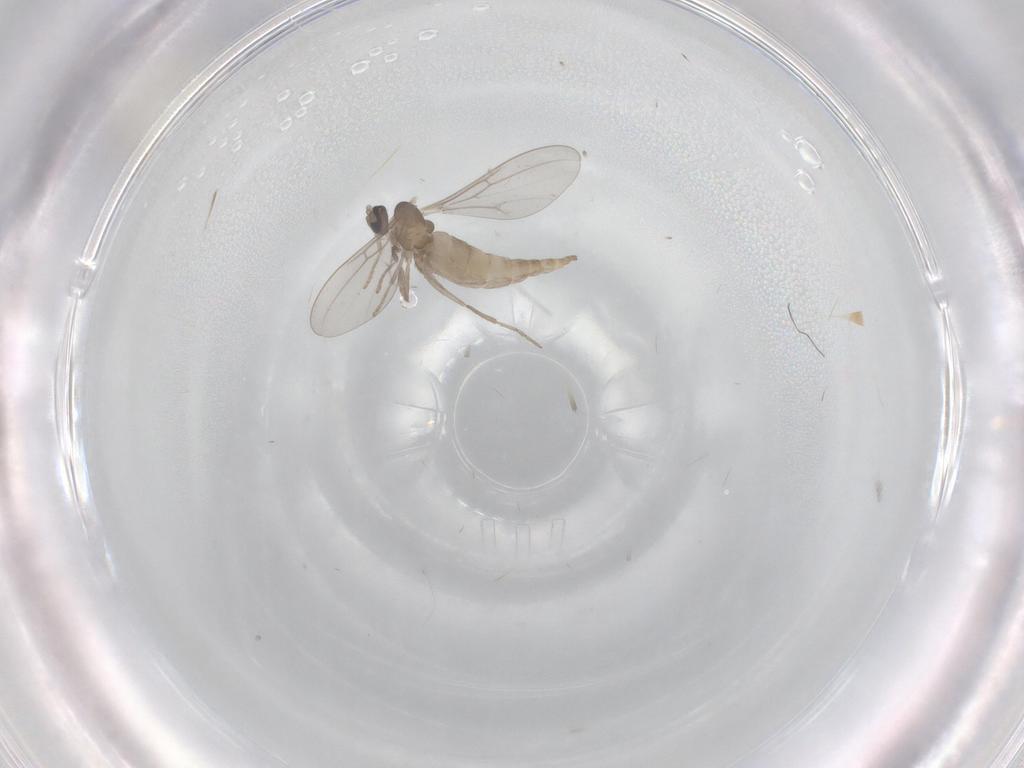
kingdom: Animalia
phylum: Arthropoda
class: Insecta
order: Diptera
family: Cecidomyiidae
